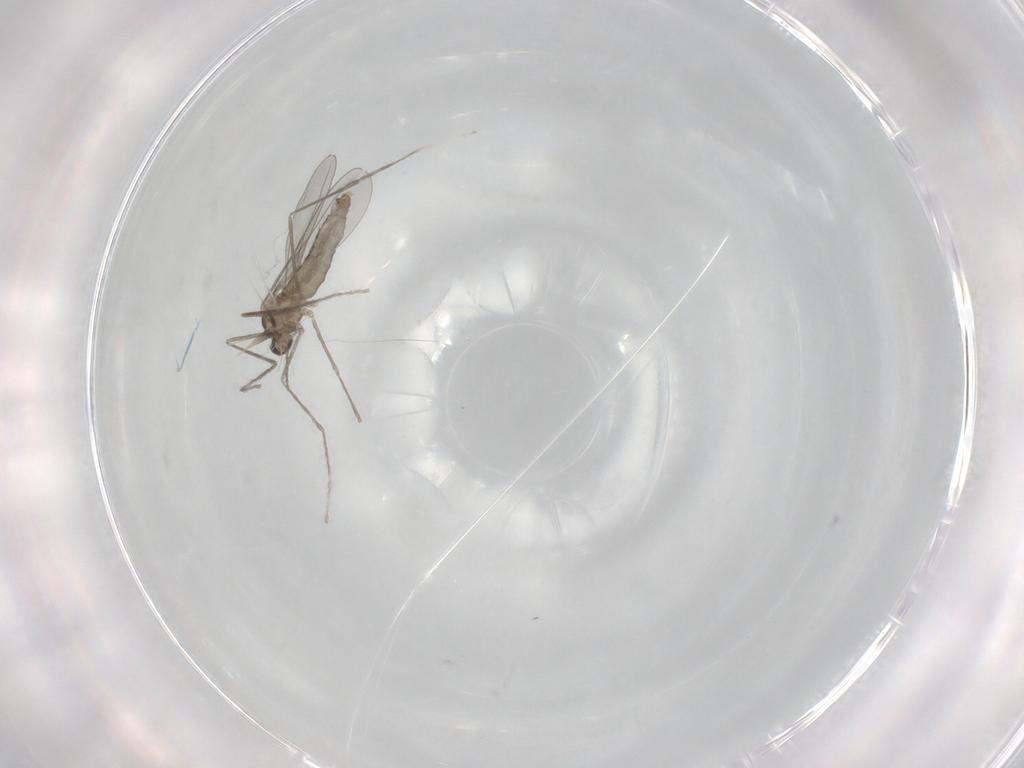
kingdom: Animalia
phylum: Arthropoda
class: Insecta
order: Diptera
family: Cecidomyiidae
